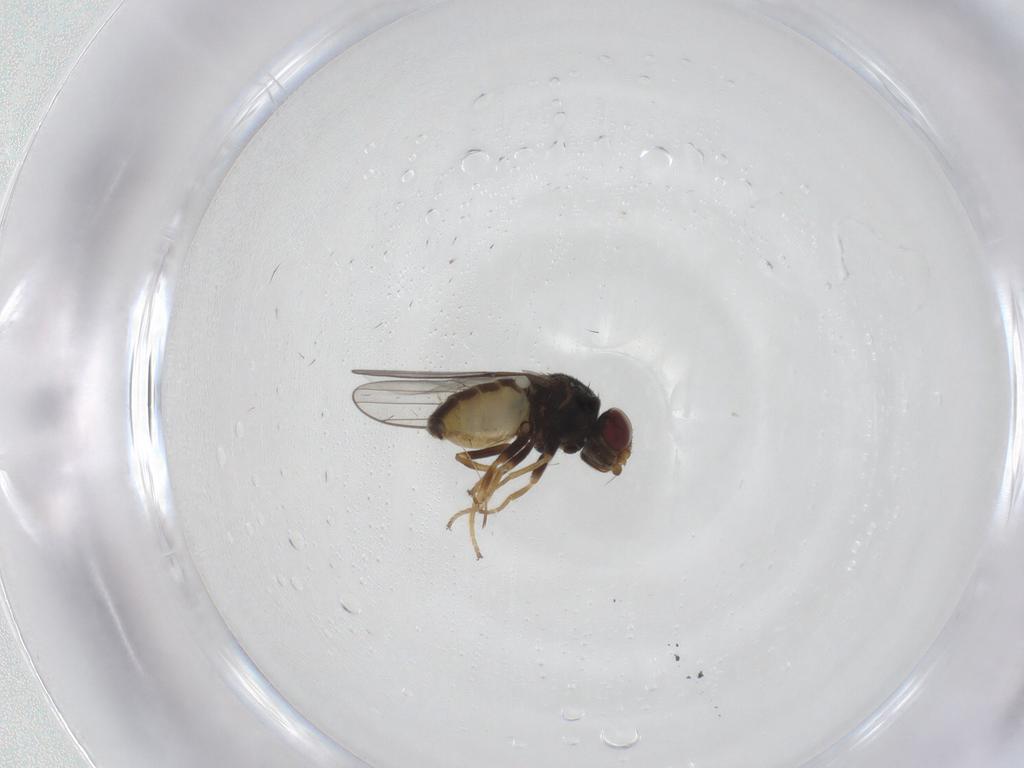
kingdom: Animalia
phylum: Arthropoda
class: Insecta
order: Diptera
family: Chloropidae
